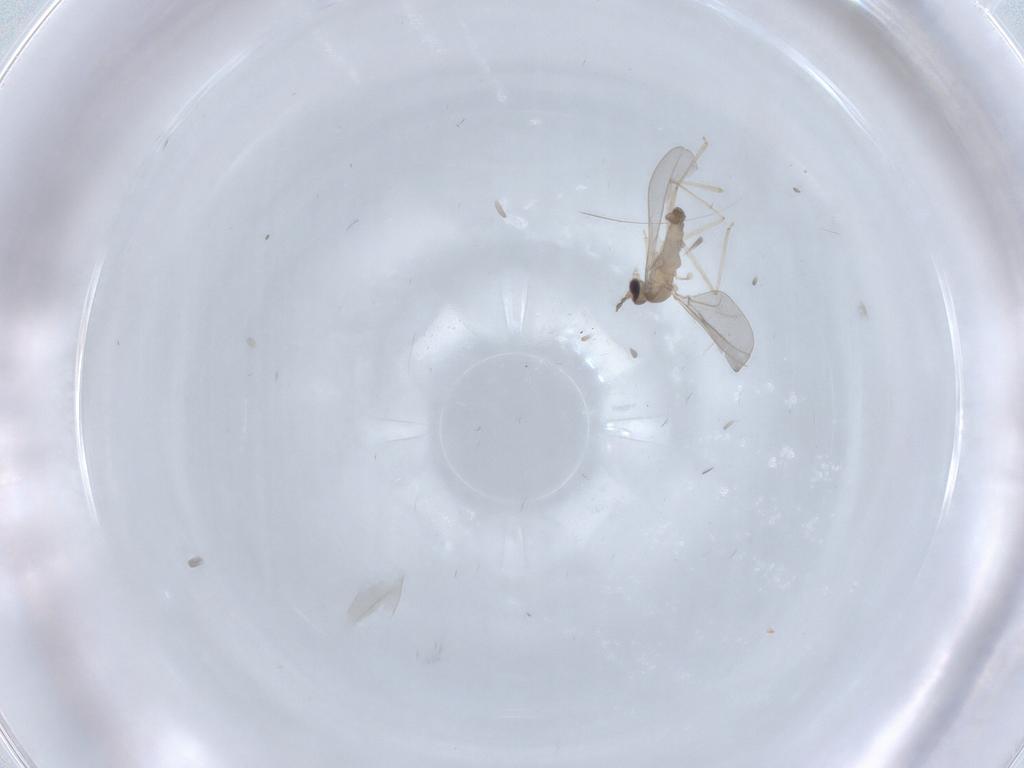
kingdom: Animalia
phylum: Arthropoda
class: Insecta
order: Diptera
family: Cecidomyiidae
